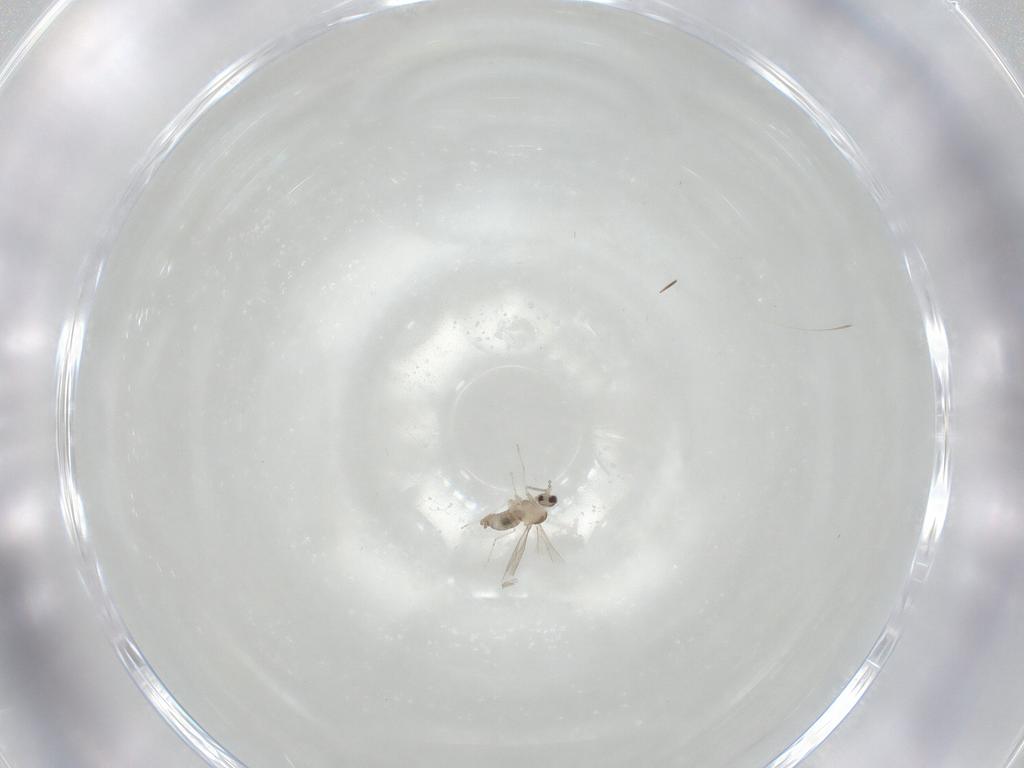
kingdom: Animalia
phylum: Arthropoda
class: Insecta
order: Diptera
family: Cecidomyiidae
